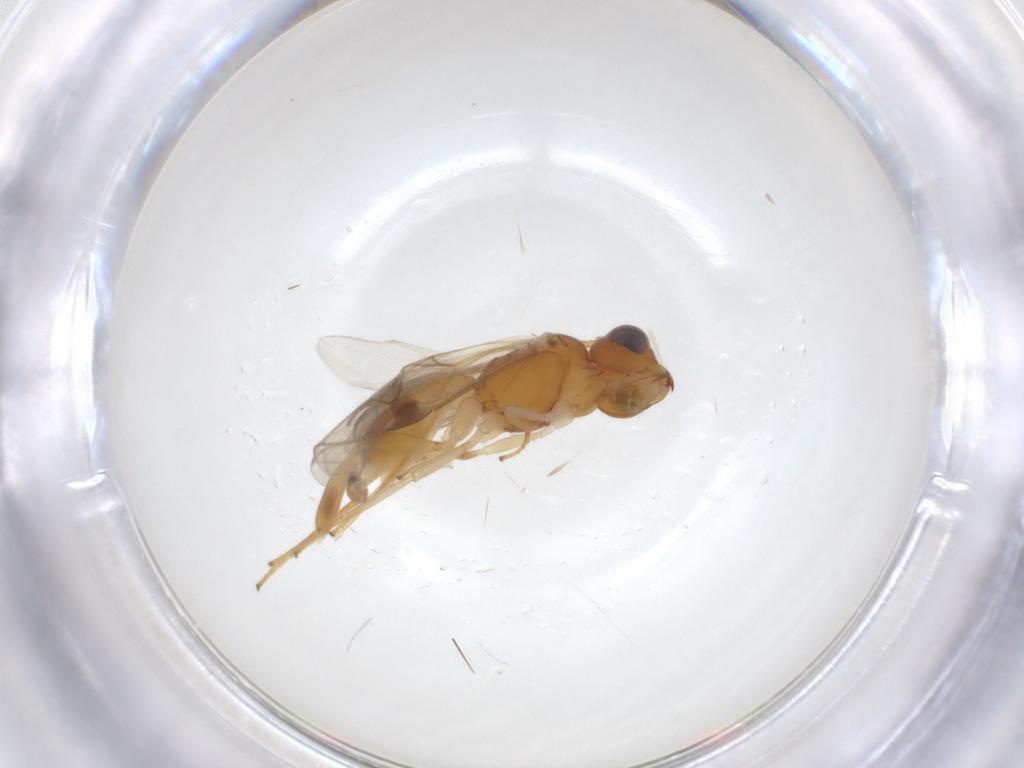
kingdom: Animalia
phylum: Arthropoda
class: Insecta
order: Hymenoptera
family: Braconidae
